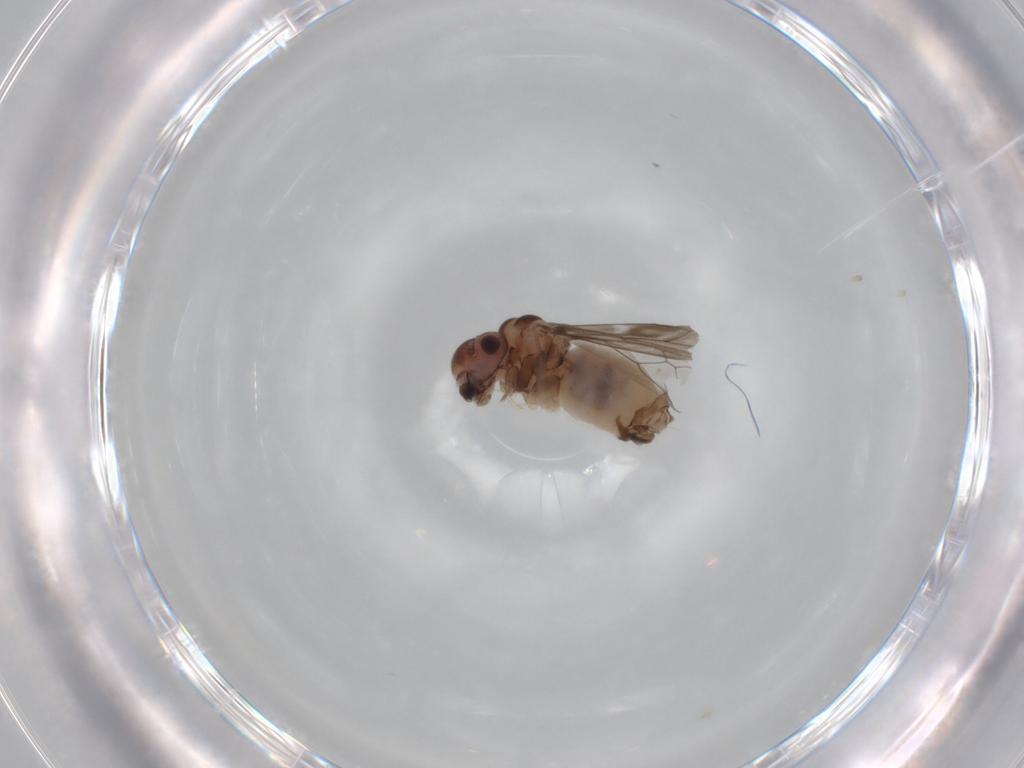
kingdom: Animalia
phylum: Arthropoda
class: Insecta
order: Psocodea
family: Peripsocidae
